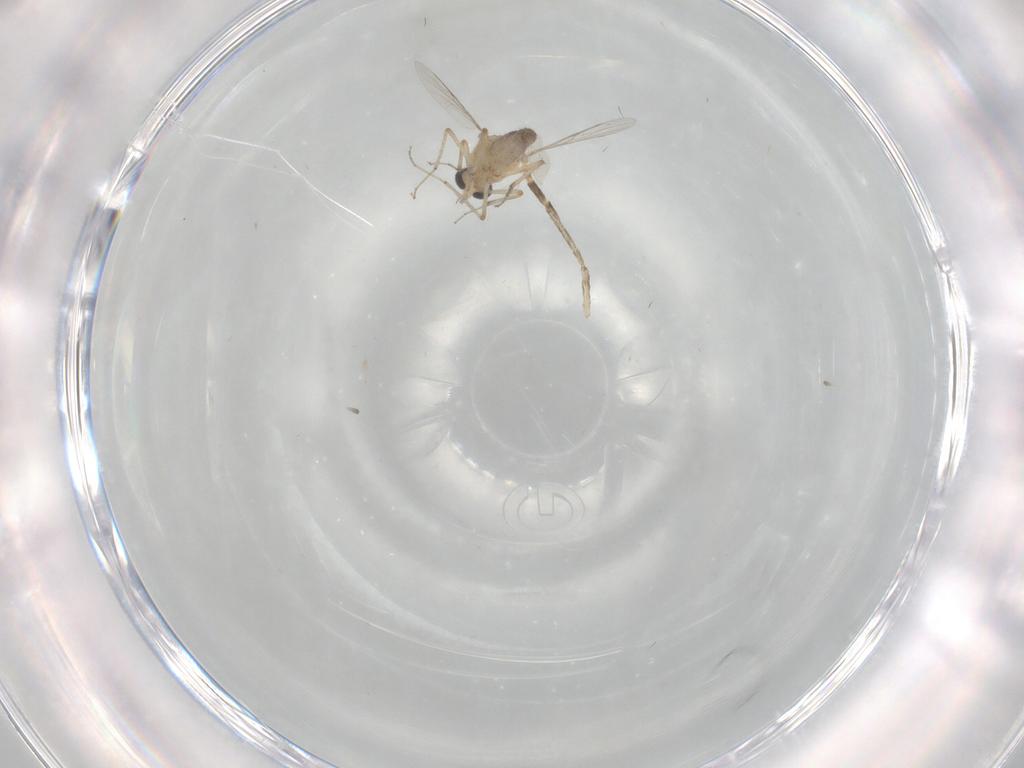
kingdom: Animalia
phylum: Arthropoda
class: Insecta
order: Diptera
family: Psychodidae
